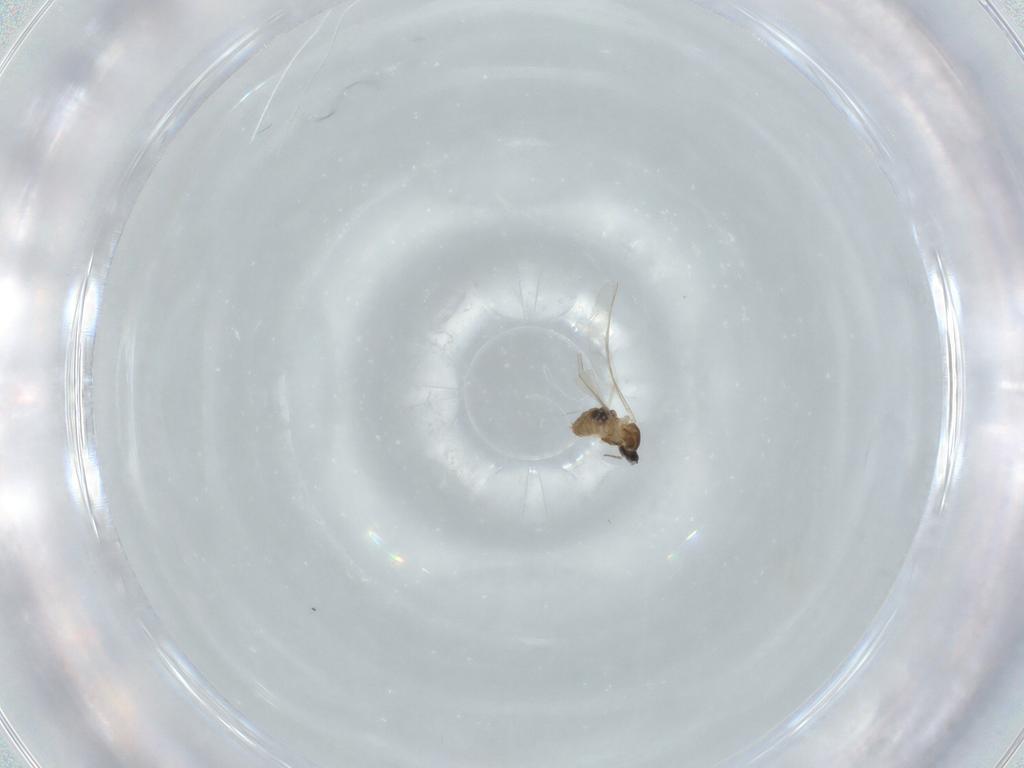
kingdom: Animalia
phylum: Arthropoda
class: Insecta
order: Diptera
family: Cecidomyiidae
